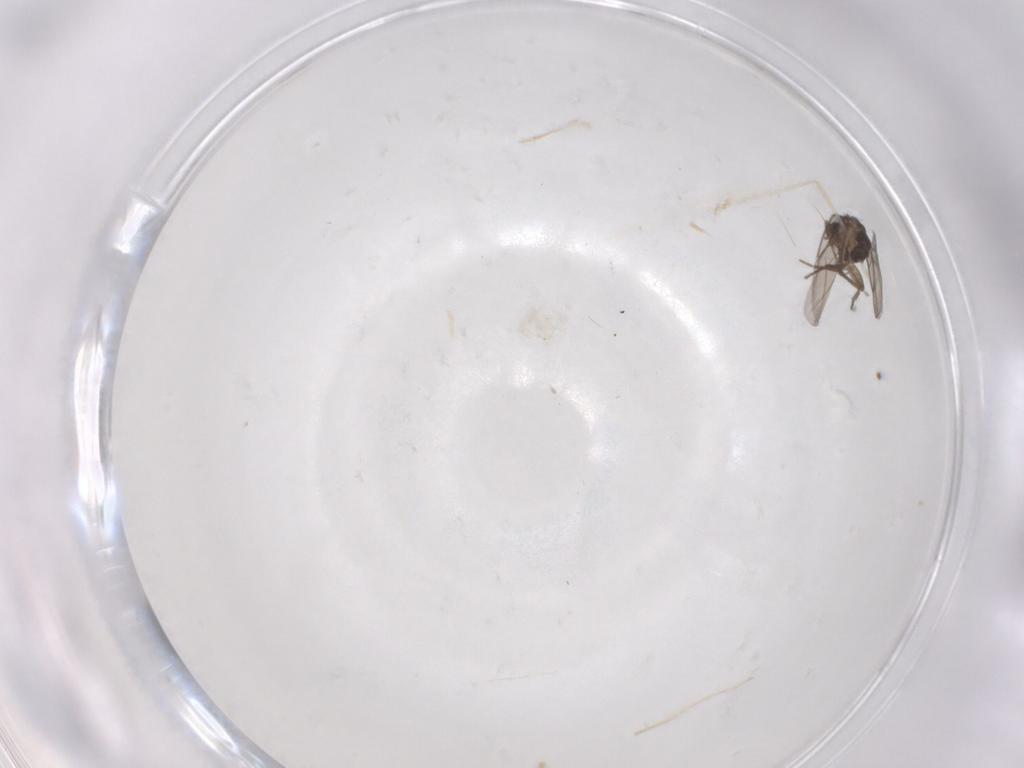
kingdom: Animalia
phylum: Arthropoda
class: Insecta
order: Diptera
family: Cecidomyiidae
